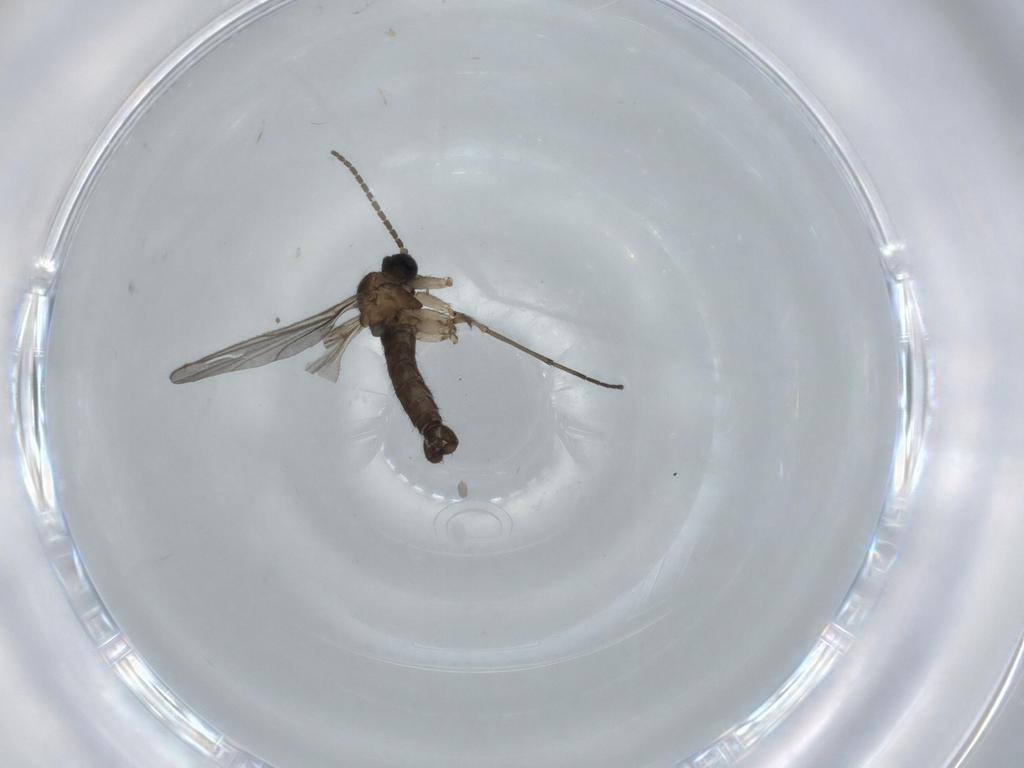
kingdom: Animalia
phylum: Arthropoda
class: Insecta
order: Diptera
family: Sciaridae
